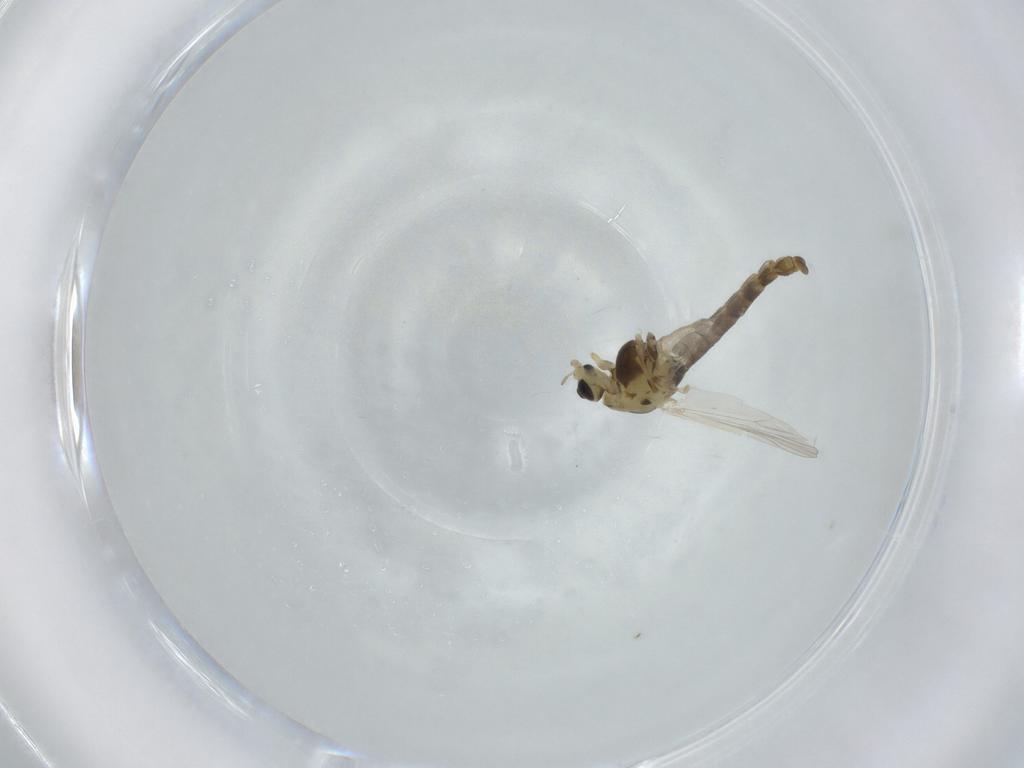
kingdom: Animalia
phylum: Arthropoda
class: Insecta
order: Diptera
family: Chironomidae
